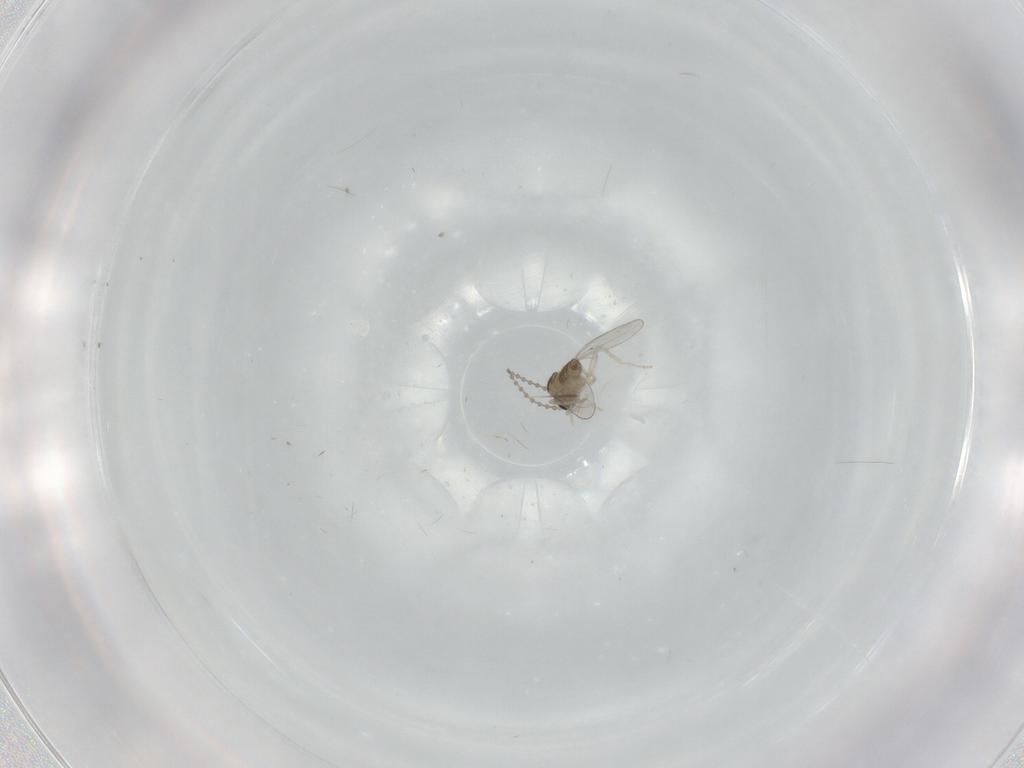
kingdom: Animalia
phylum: Arthropoda
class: Insecta
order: Diptera
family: Cecidomyiidae
